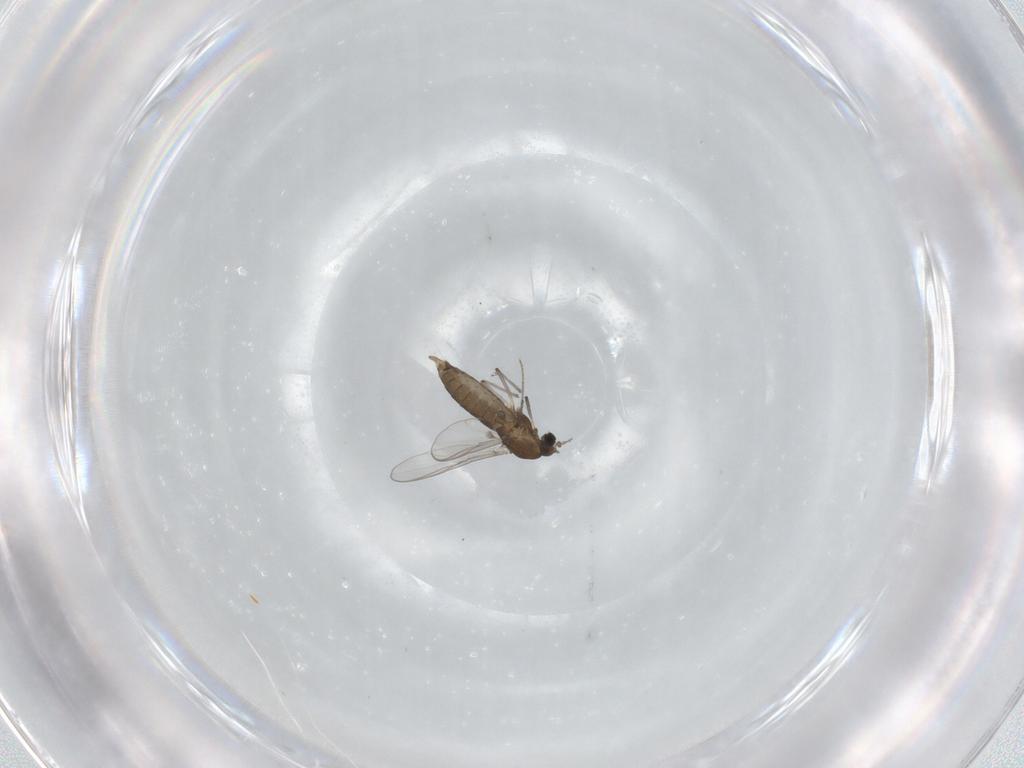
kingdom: Animalia
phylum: Arthropoda
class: Insecta
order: Diptera
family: Chironomidae
